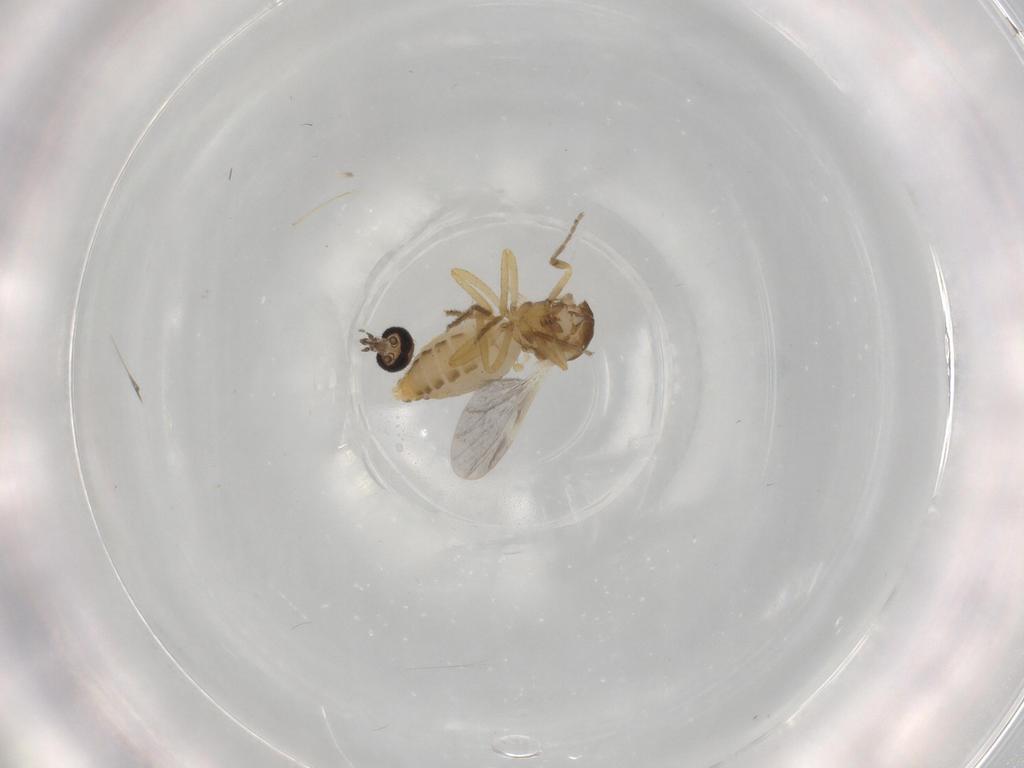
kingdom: Animalia
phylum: Arthropoda
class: Insecta
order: Diptera
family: Ceratopogonidae
